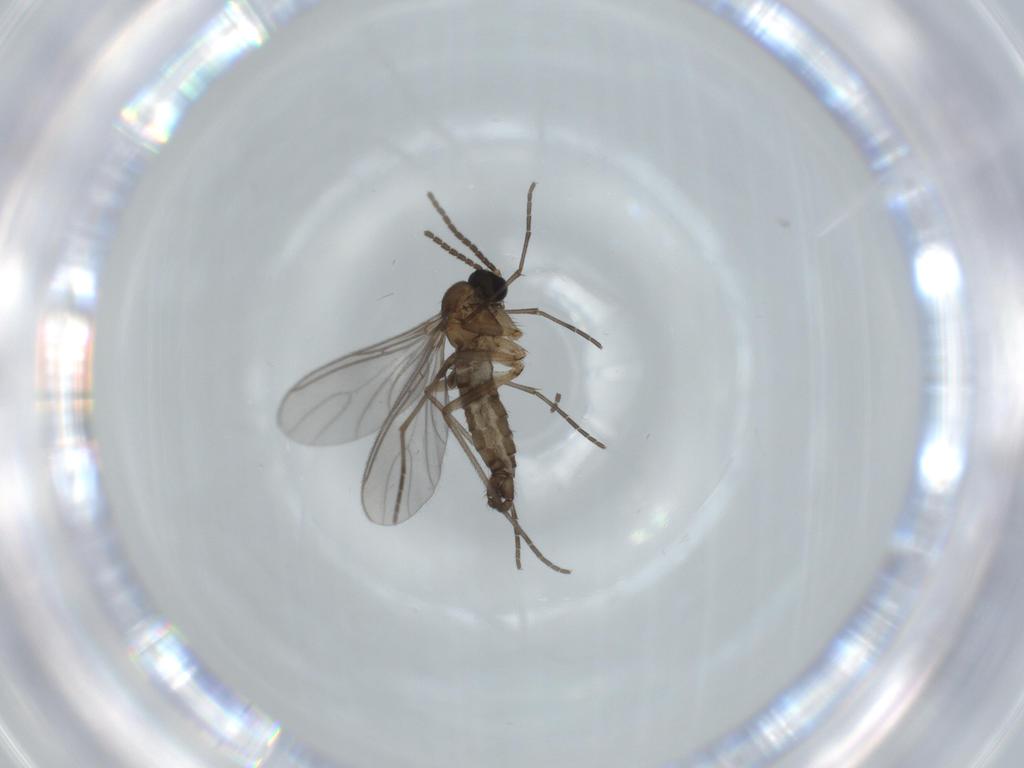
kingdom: Animalia
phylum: Arthropoda
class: Insecta
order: Diptera
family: Sciaridae
